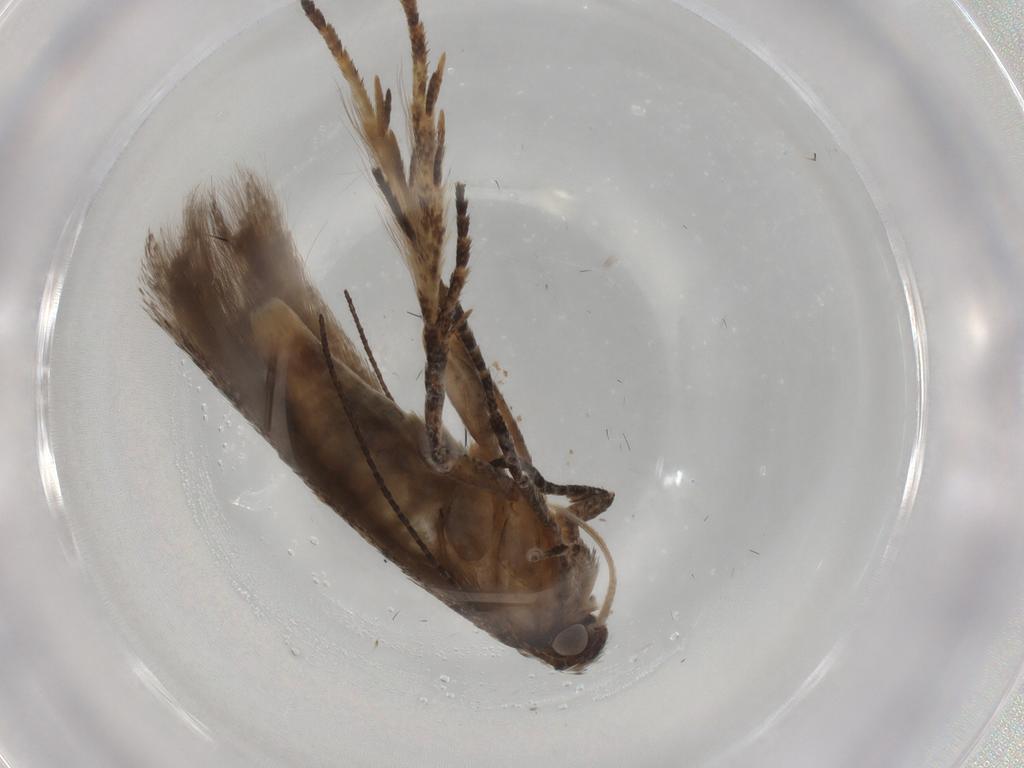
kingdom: Animalia
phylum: Arthropoda
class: Insecta
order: Lepidoptera
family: Gelechiidae
